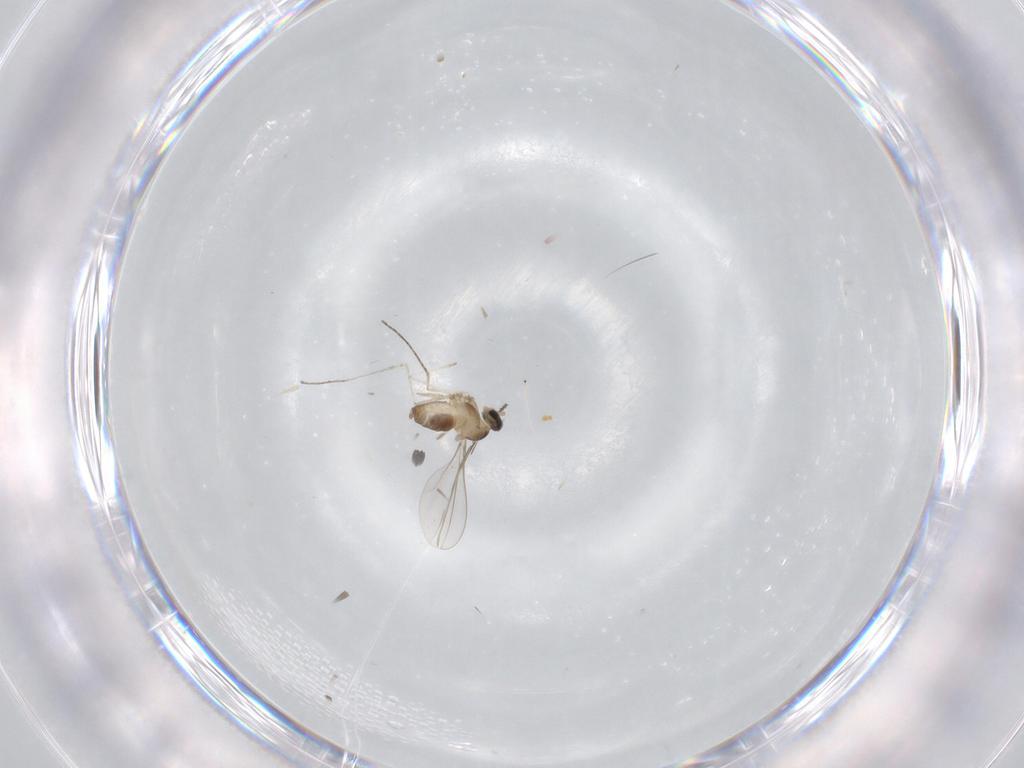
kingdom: Animalia
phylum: Arthropoda
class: Insecta
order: Diptera
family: Cecidomyiidae
